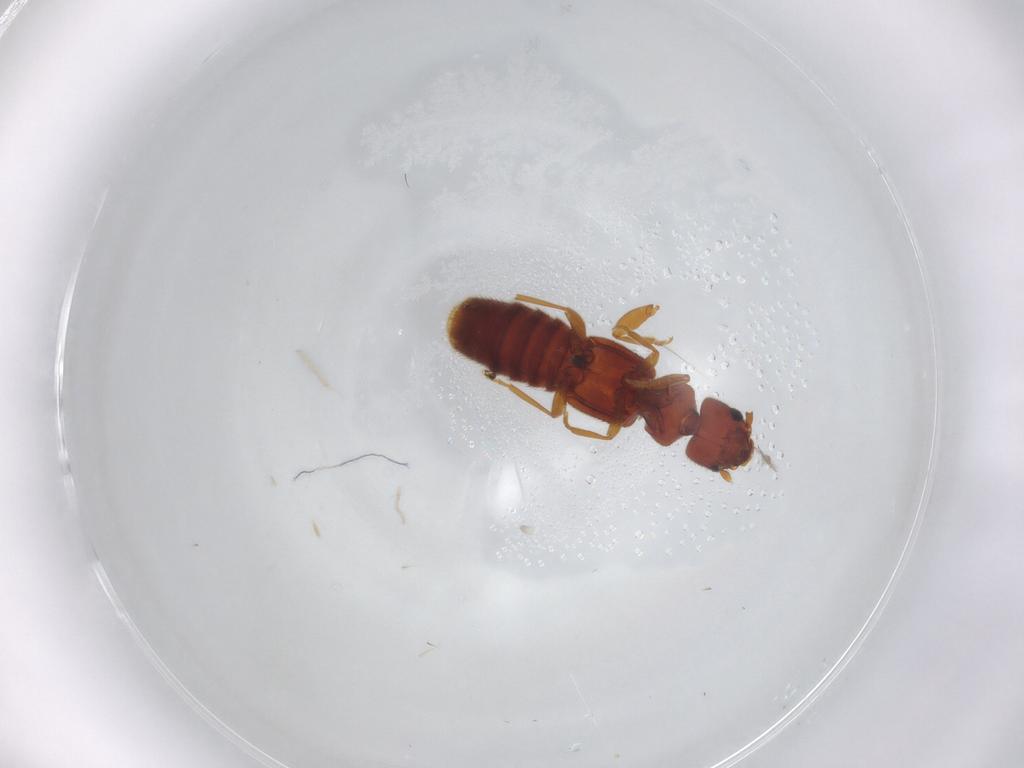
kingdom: Animalia
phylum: Arthropoda
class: Insecta
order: Coleoptera
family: Staphylinidae
